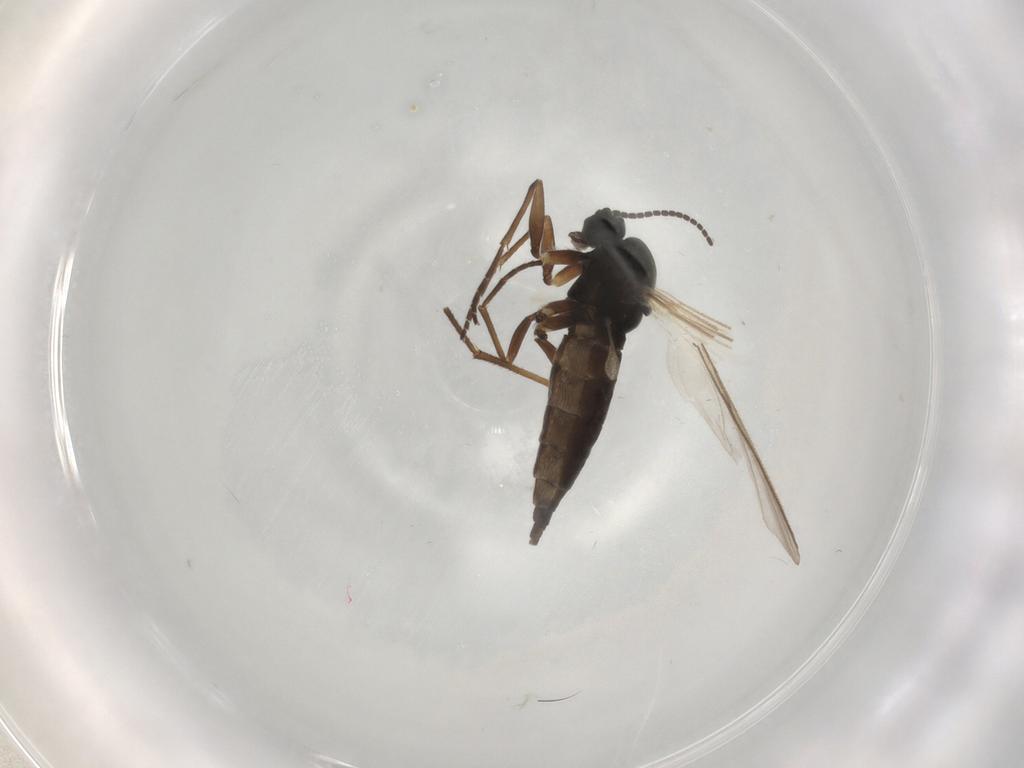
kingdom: Animalia
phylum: Arthropoda
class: Insecta
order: Diptera
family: Sciaridae
